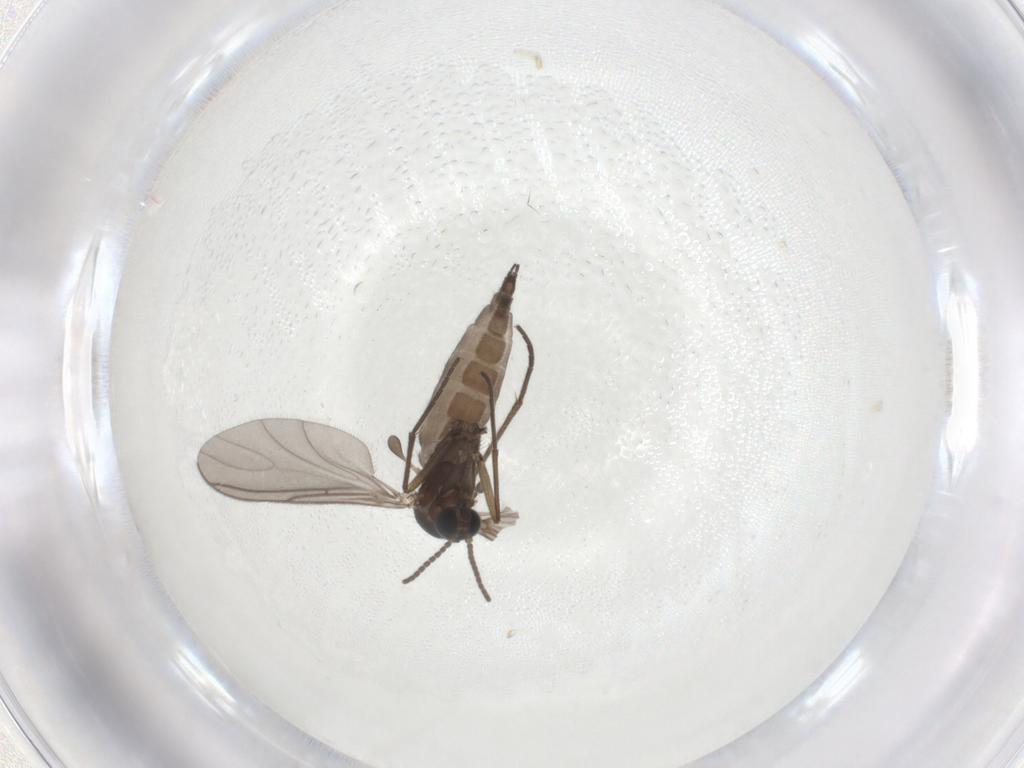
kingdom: Animalia
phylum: Arthropoda
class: Insecta
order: Diptera
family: Sciaridae
